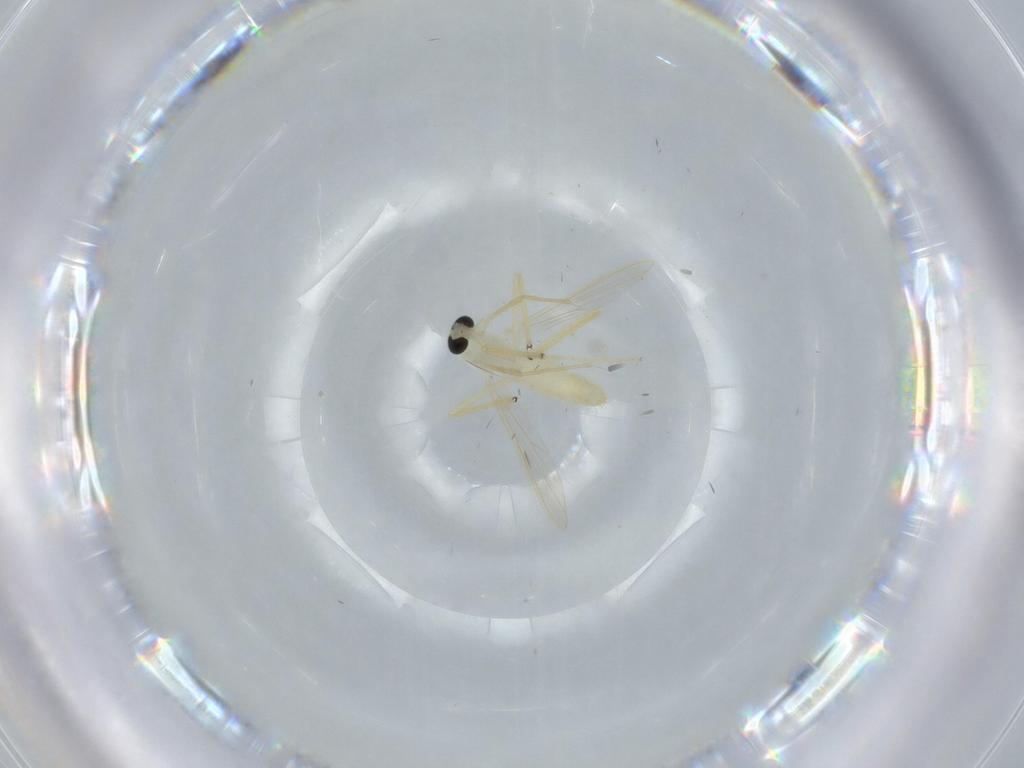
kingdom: Animalia
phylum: Arthropoda
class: Insecta
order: Diptera
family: Chironomidae
